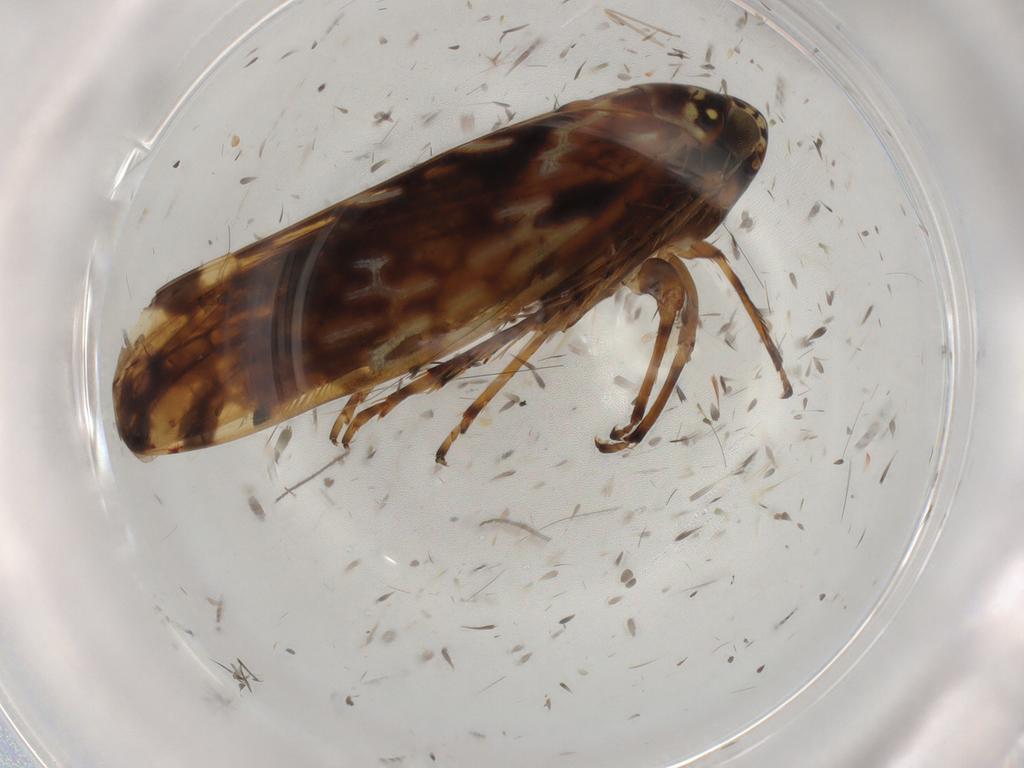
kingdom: Animalia
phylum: Arthropoda
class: Insecta
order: Hemiptera
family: Cicadellidae
